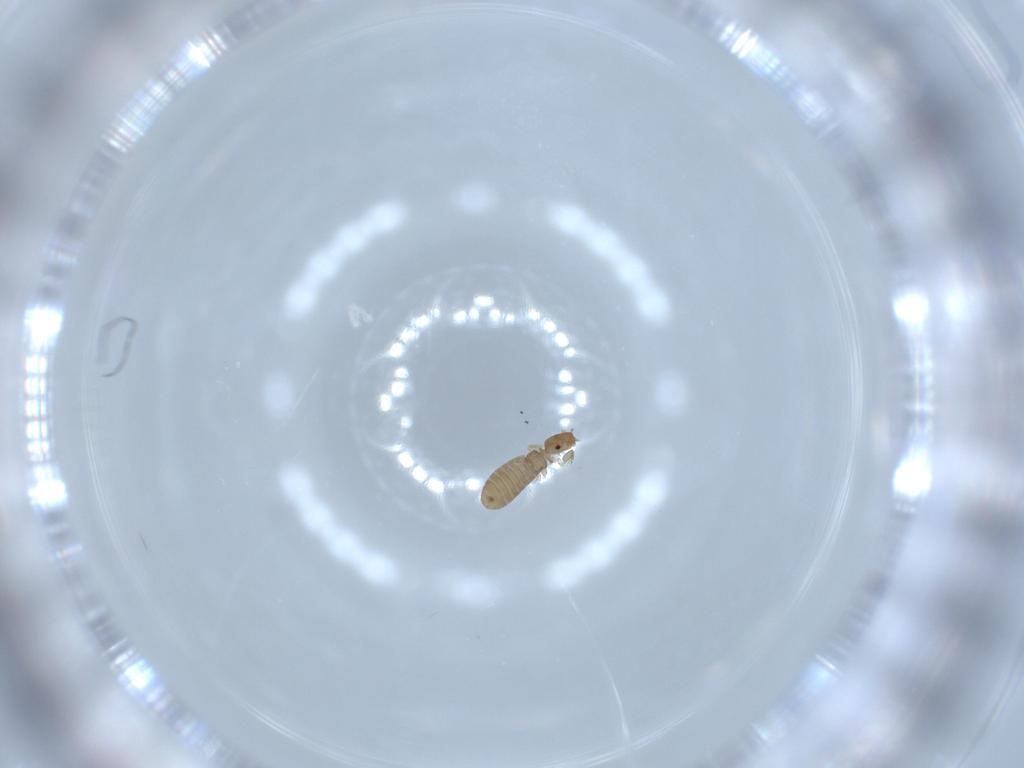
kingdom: Animalia
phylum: Arthropoda
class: Insecta
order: Psocodea
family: Liposcelididae
